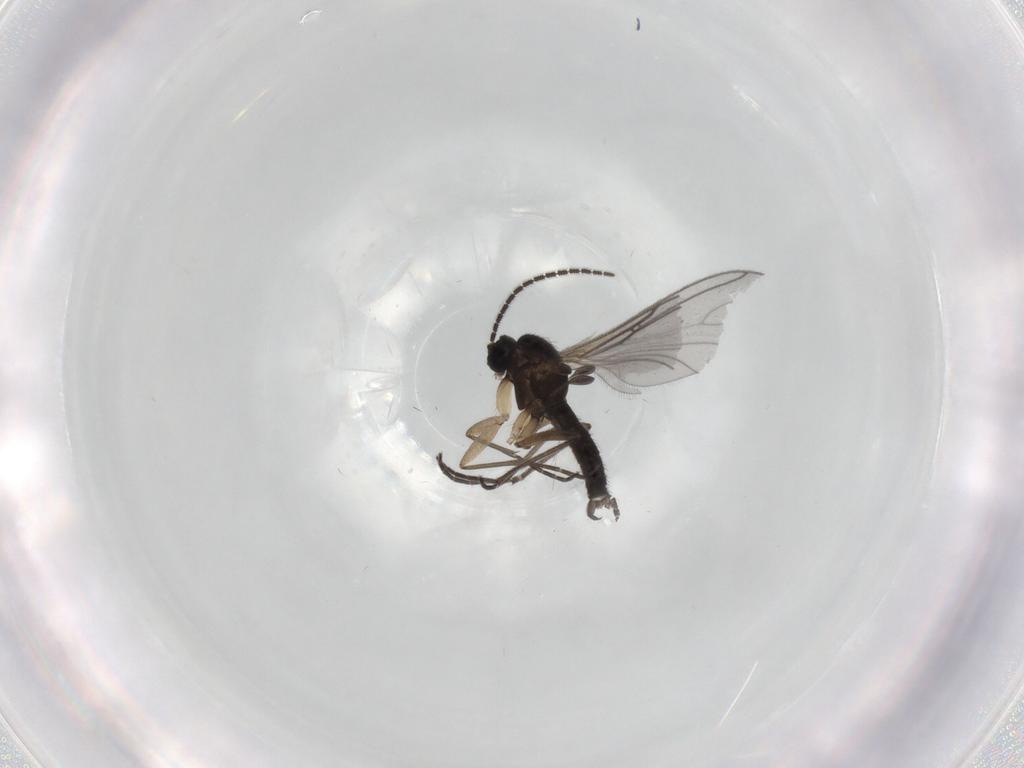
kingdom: Animalia
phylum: Arthropoda
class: Insecta
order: Diptera
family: Sciaridae
